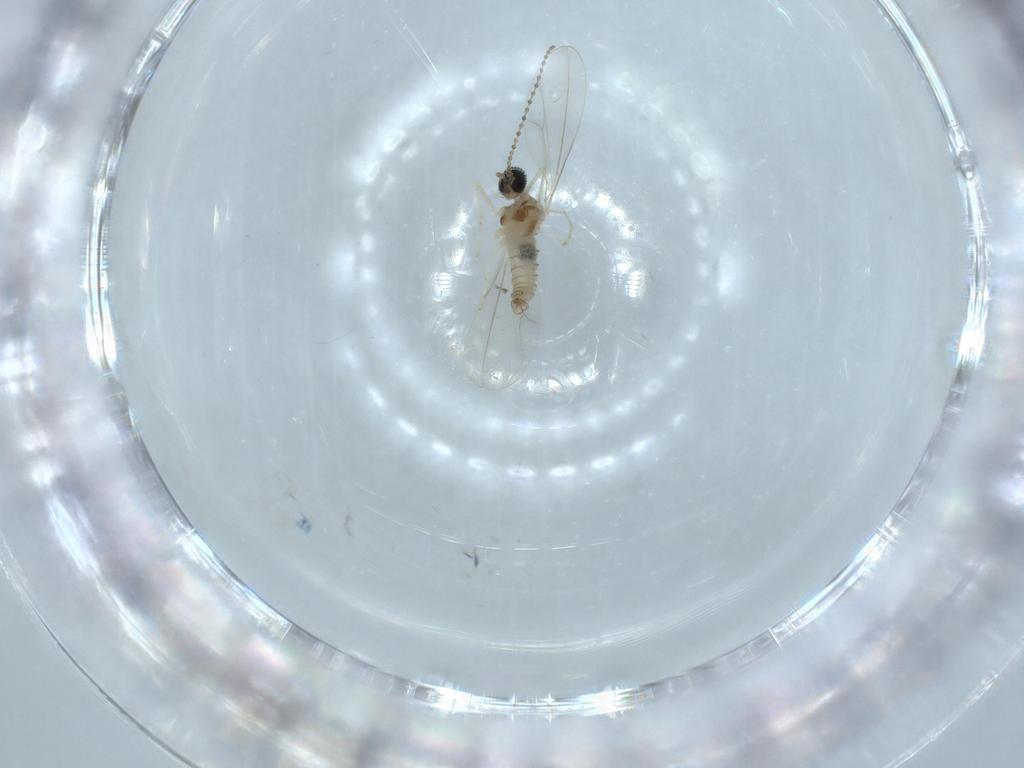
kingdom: Animalia
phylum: Arthropoda
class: Insecta
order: Diptera
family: Cecidomyiidae
